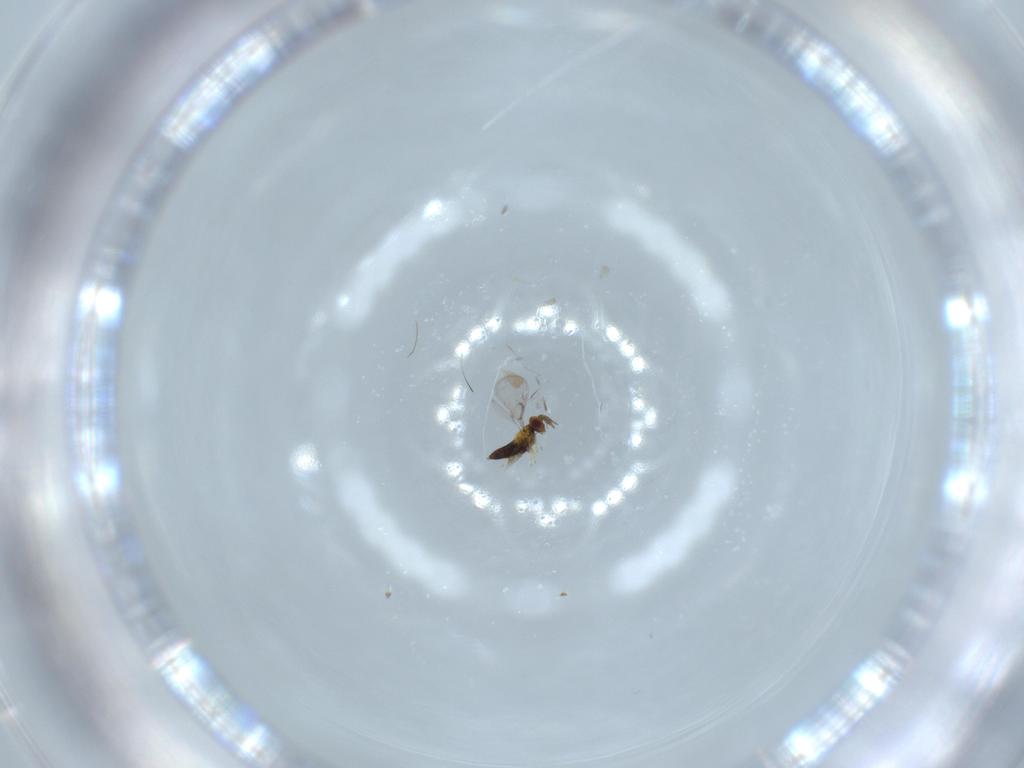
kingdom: Animalia
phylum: Arthropoda
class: Insecta
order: Hymenoptera
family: Trichogrammatidae
